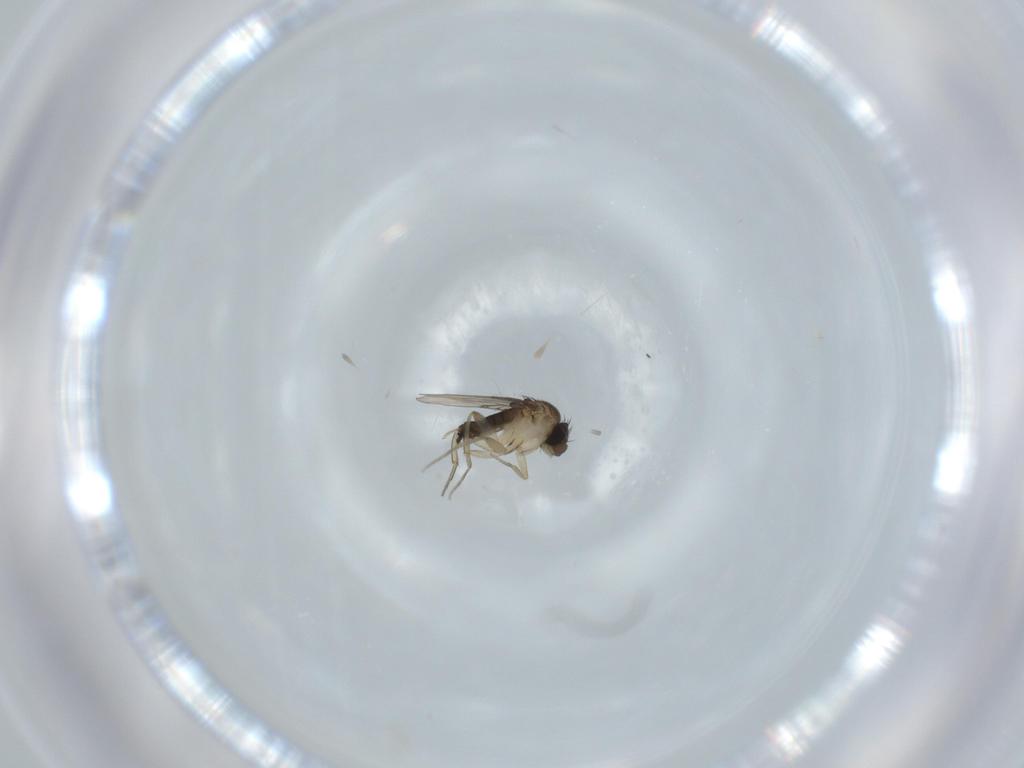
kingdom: Animalia
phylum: Arthropoda
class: Insecta
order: Diptera
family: Phoridae
